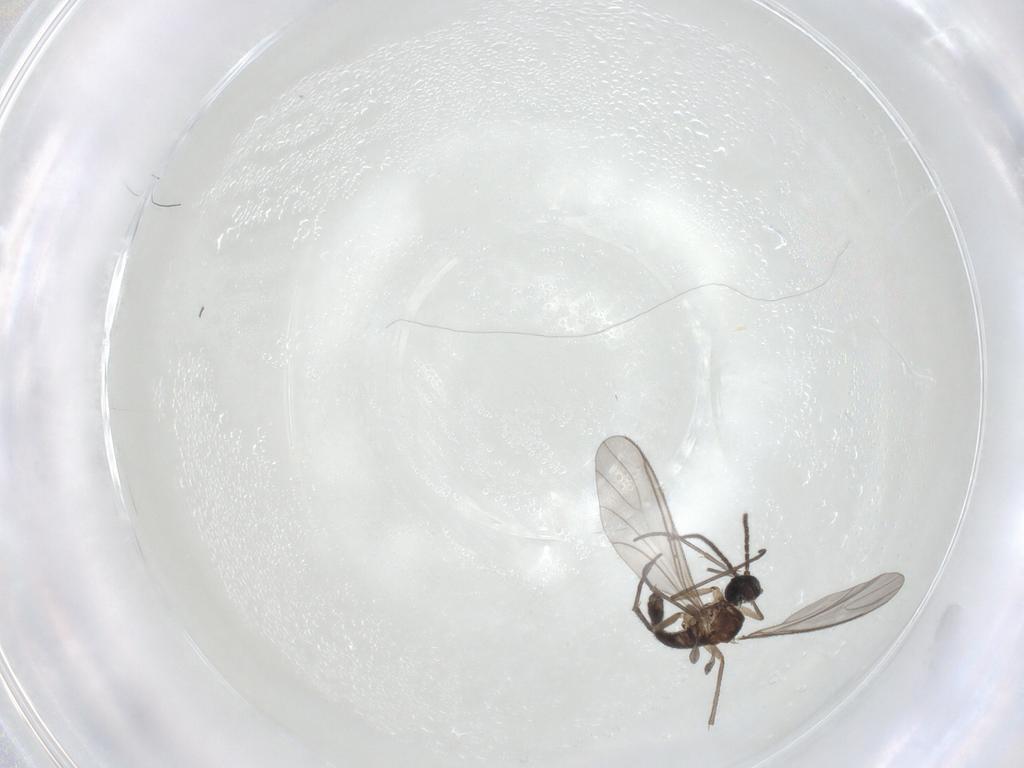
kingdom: Animalia
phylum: Arthropoda
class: Insecta
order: Diptera
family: Sciaridae
